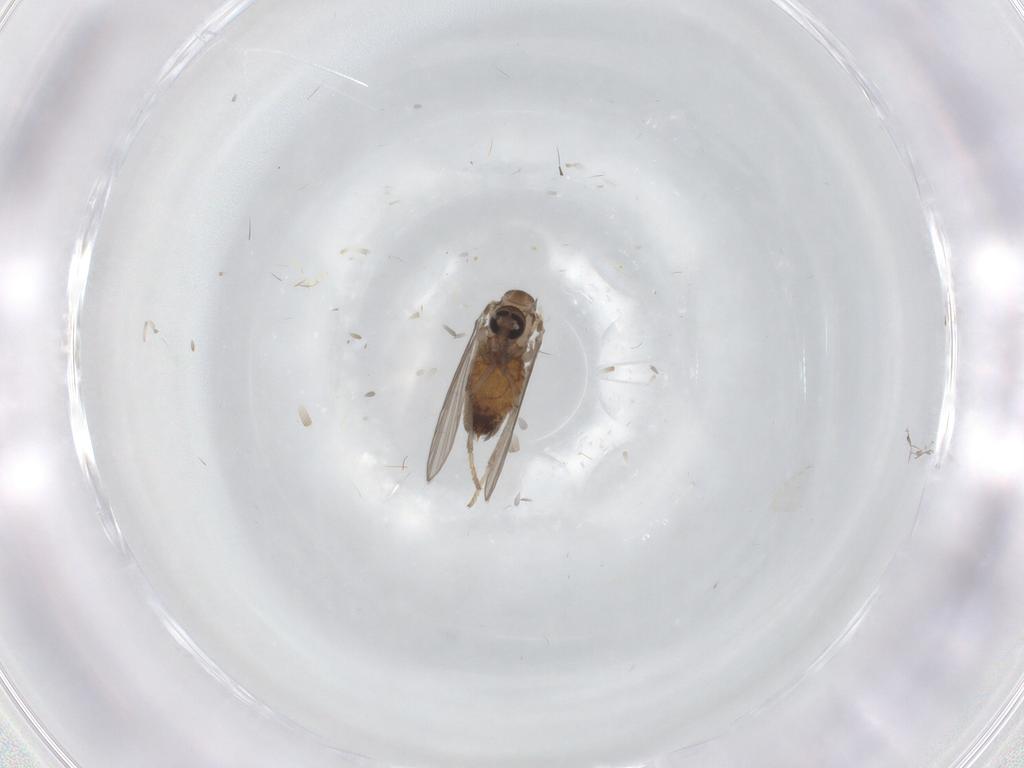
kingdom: Animalia
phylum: Arthropoda
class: Insecta
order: Diptera
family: Psychodidae
